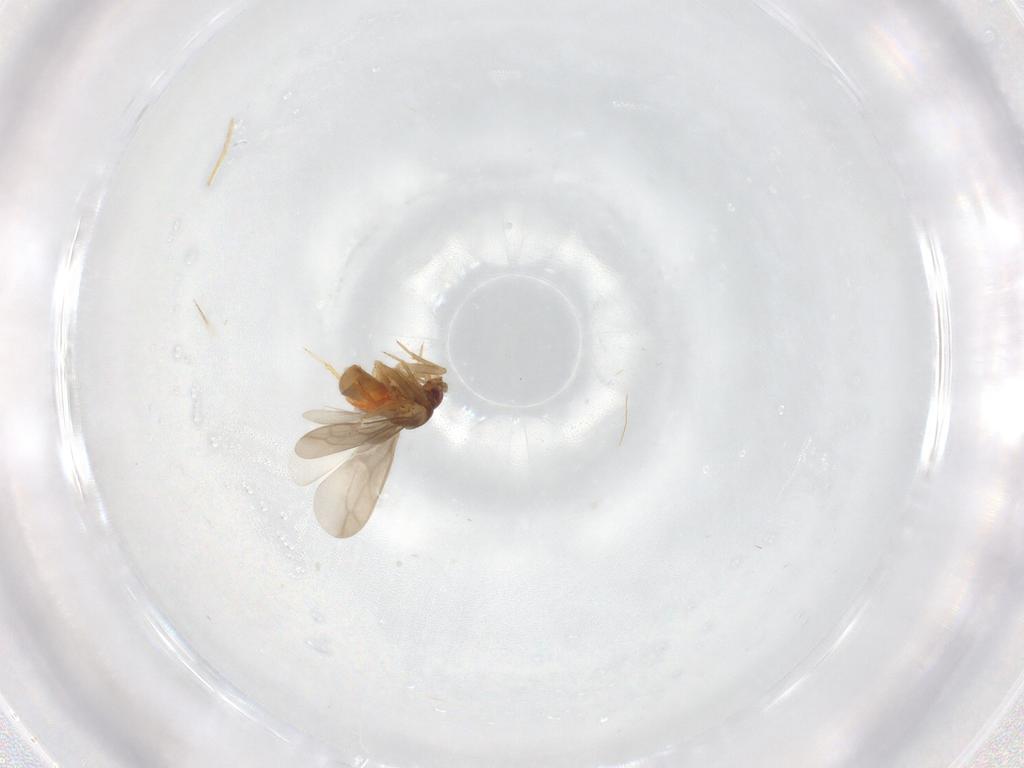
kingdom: Animalia
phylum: Arthropoda
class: Insecta
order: Hemiptera
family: Ceratocombidae
